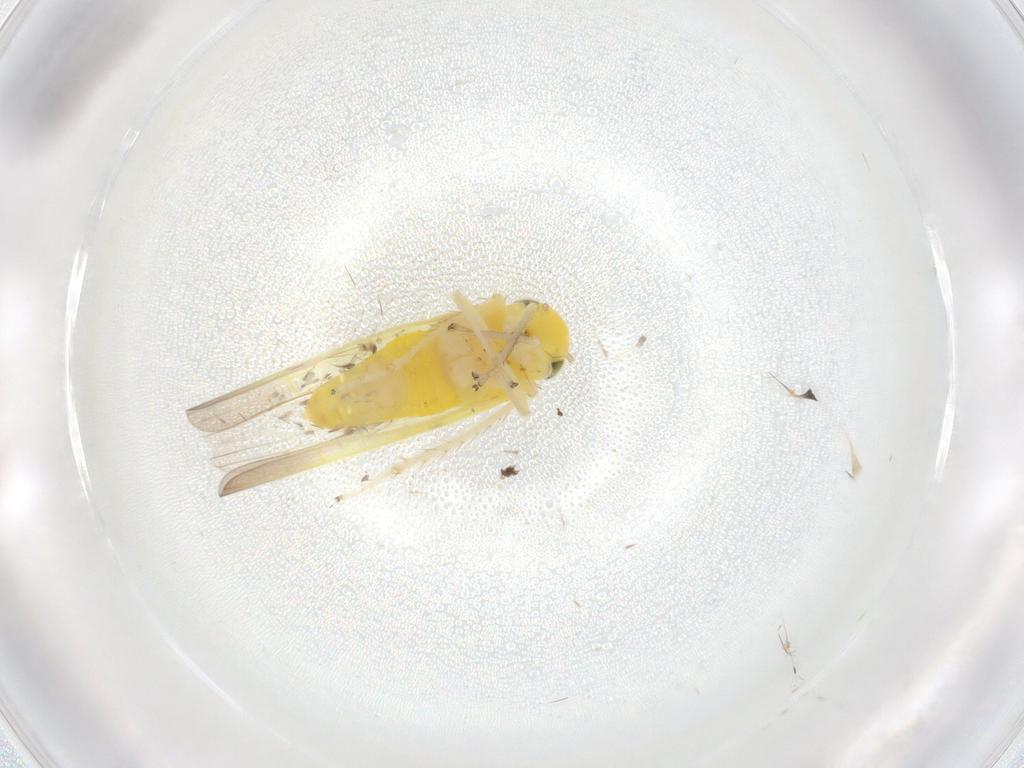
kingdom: Animalia
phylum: Arthropoda
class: Insecta
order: Hemiptera
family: Cicadellidae
